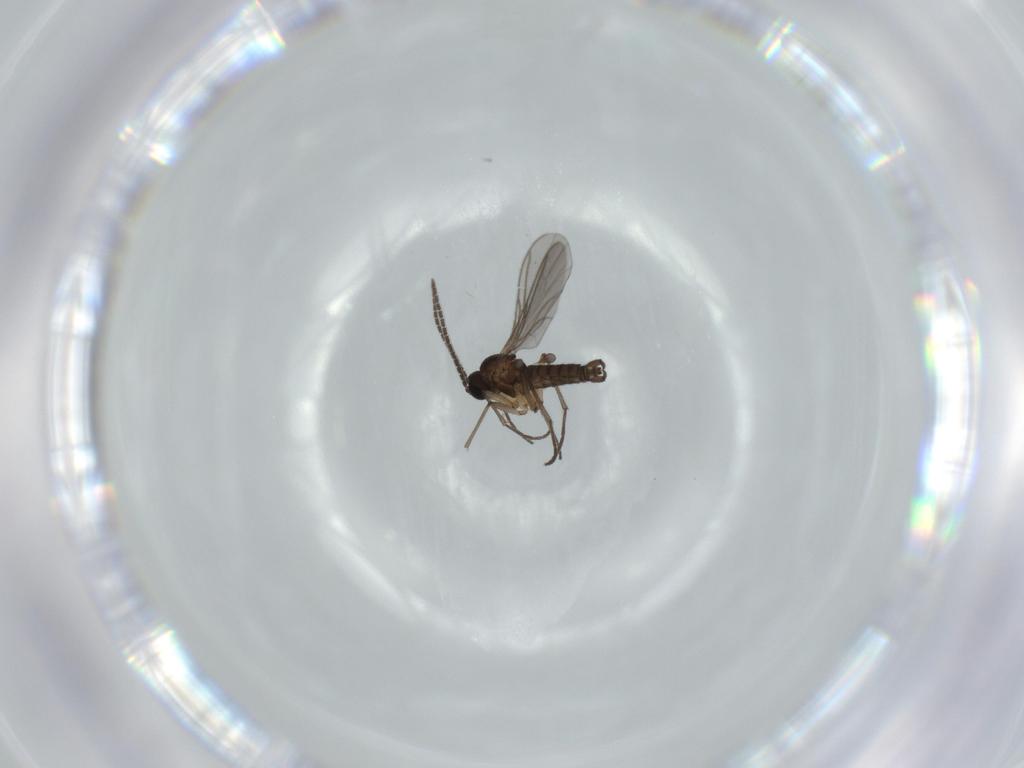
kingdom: Animalia
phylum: Arthropoda
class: Insecta
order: Diptera
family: Sciaridae
